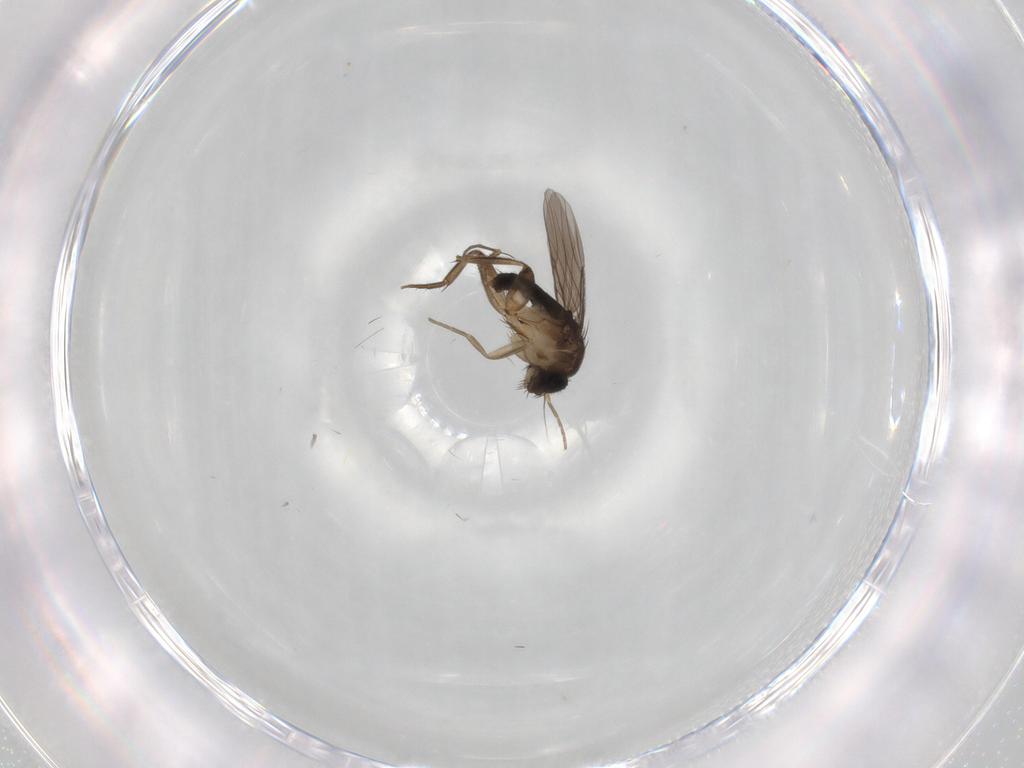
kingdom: Animalia
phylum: Arthropoda
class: Insecta
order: Diptera
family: Phoridae
